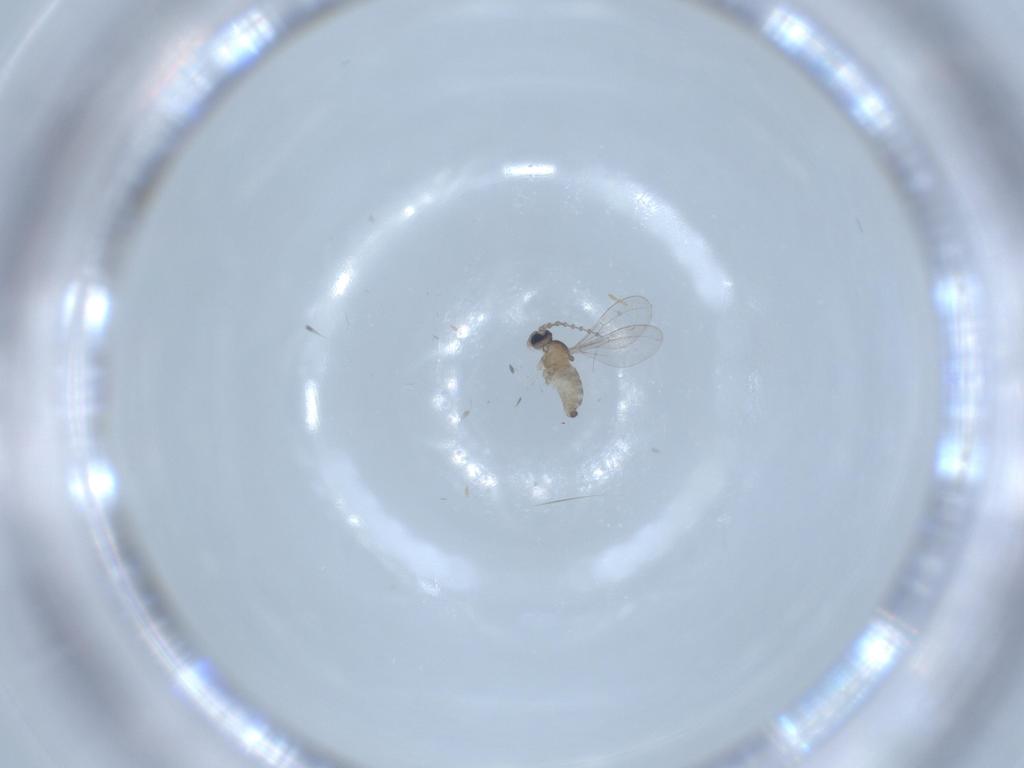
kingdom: Animalia
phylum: Arthropoda
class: Insecta
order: Diptera
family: Cecidomyiidae
